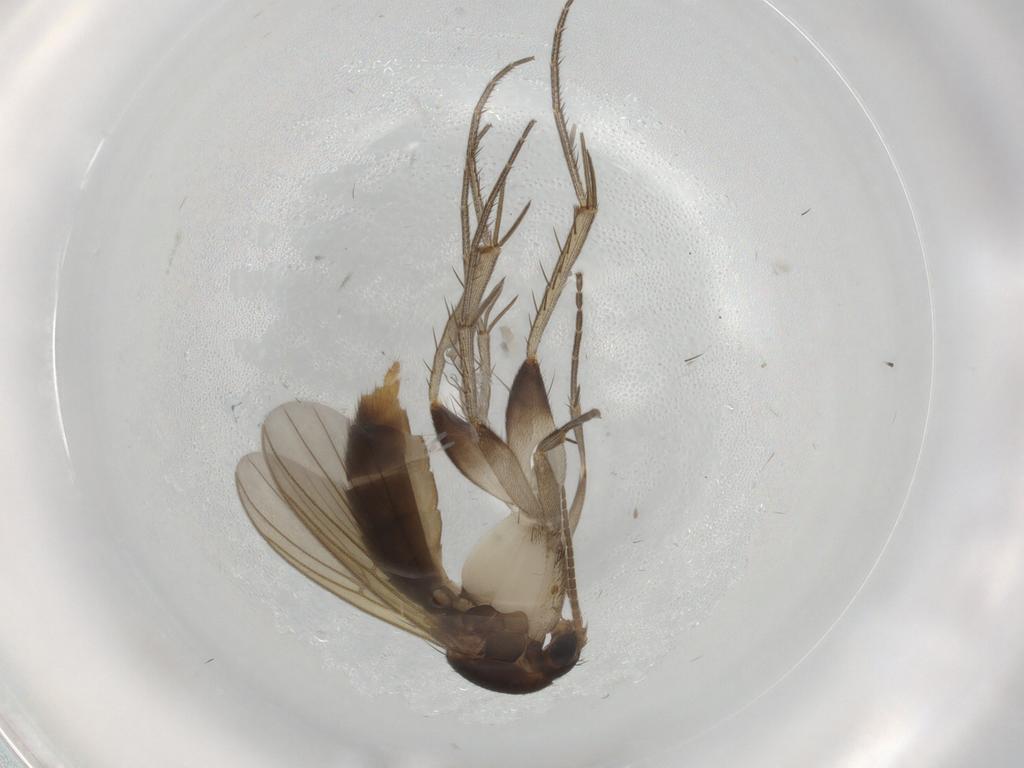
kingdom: Animalia
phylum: Arthropoda
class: Insecta
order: Diptera
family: Mycetophilidae
